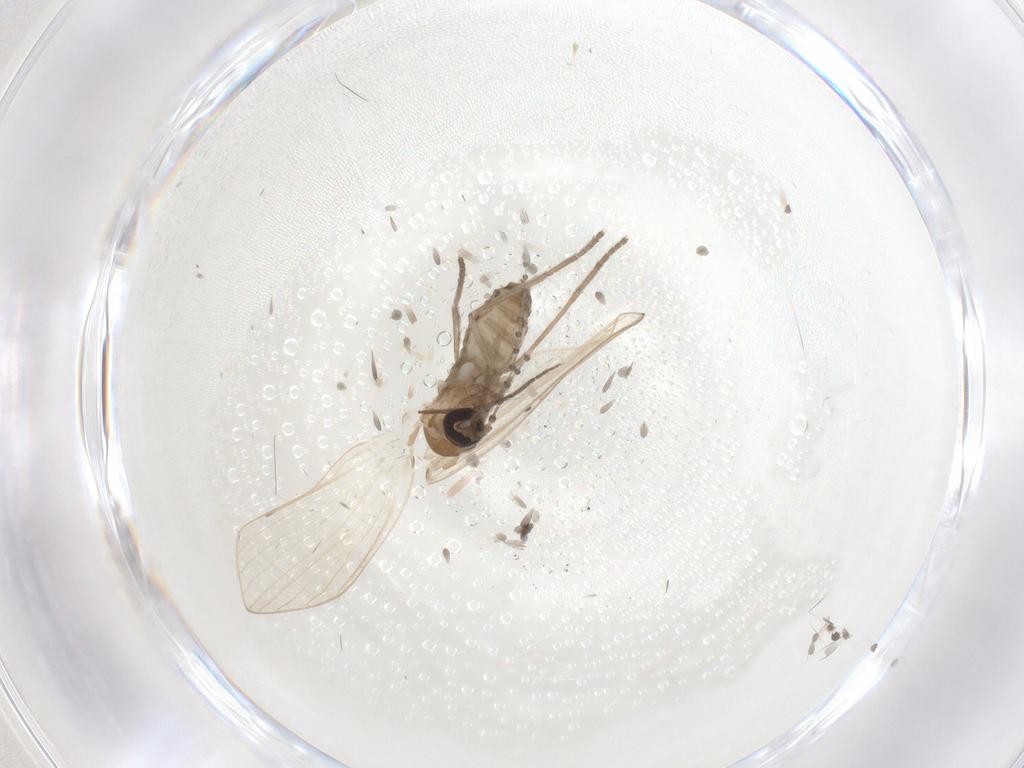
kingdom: Animalia
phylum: Arthropoda
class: Insecta
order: Diptera
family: Psychodidae
